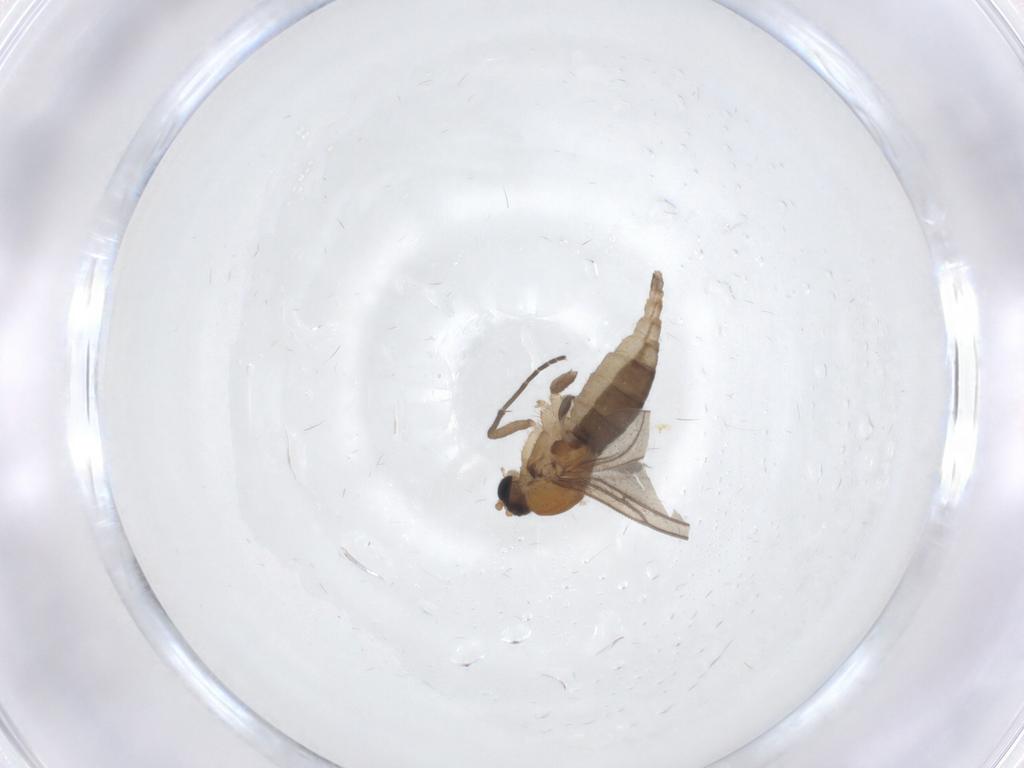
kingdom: Animalia
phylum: Arthropoda
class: Insecta
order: Diptera
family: Sciaridae
